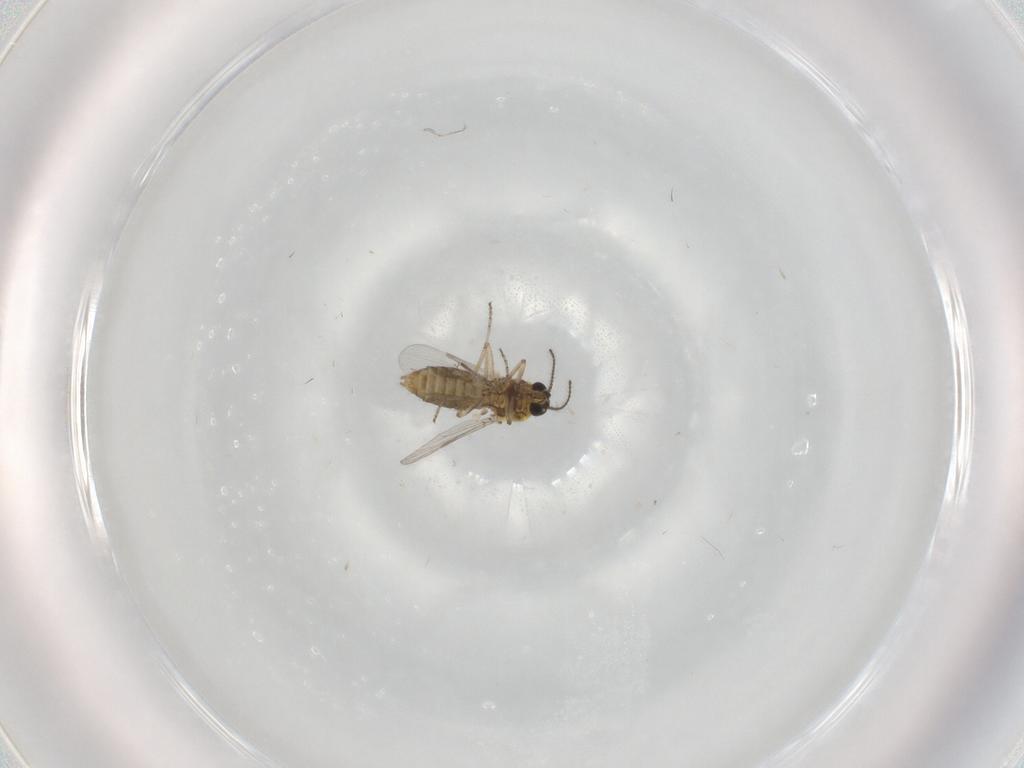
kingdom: Animalia
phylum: Arthropoda
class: Insecta
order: Diptera
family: Ceratopogonidae
